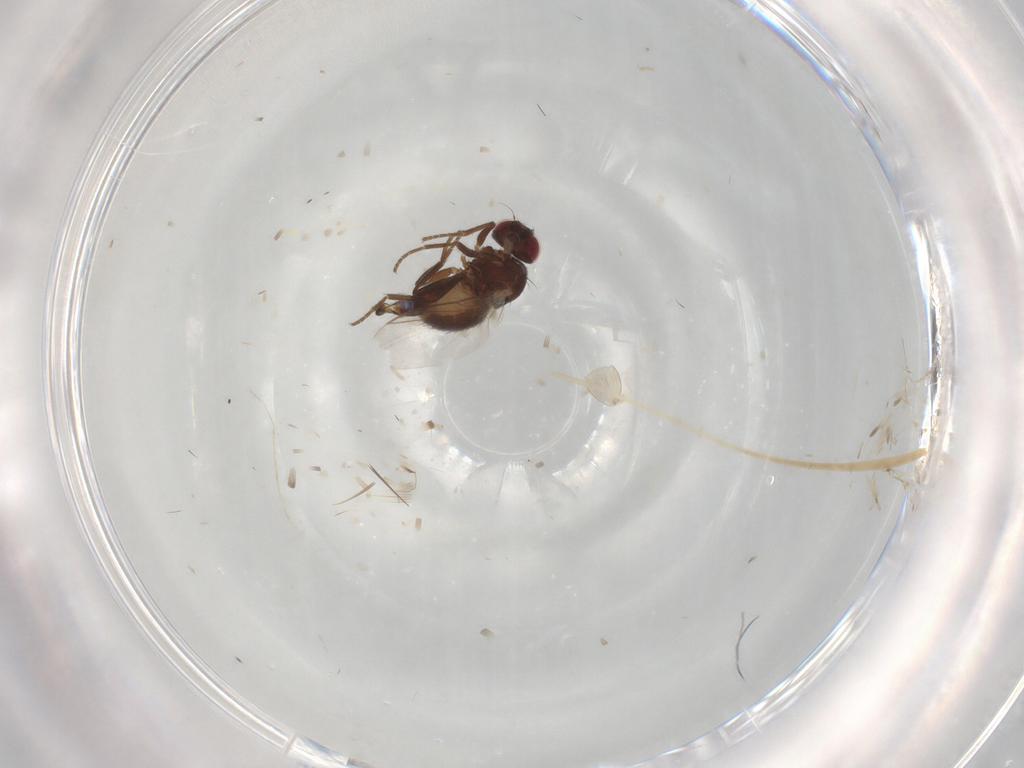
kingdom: Animalia
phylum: Arthropoda
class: Insecta
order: Diptera
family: Ceratopogonidae
